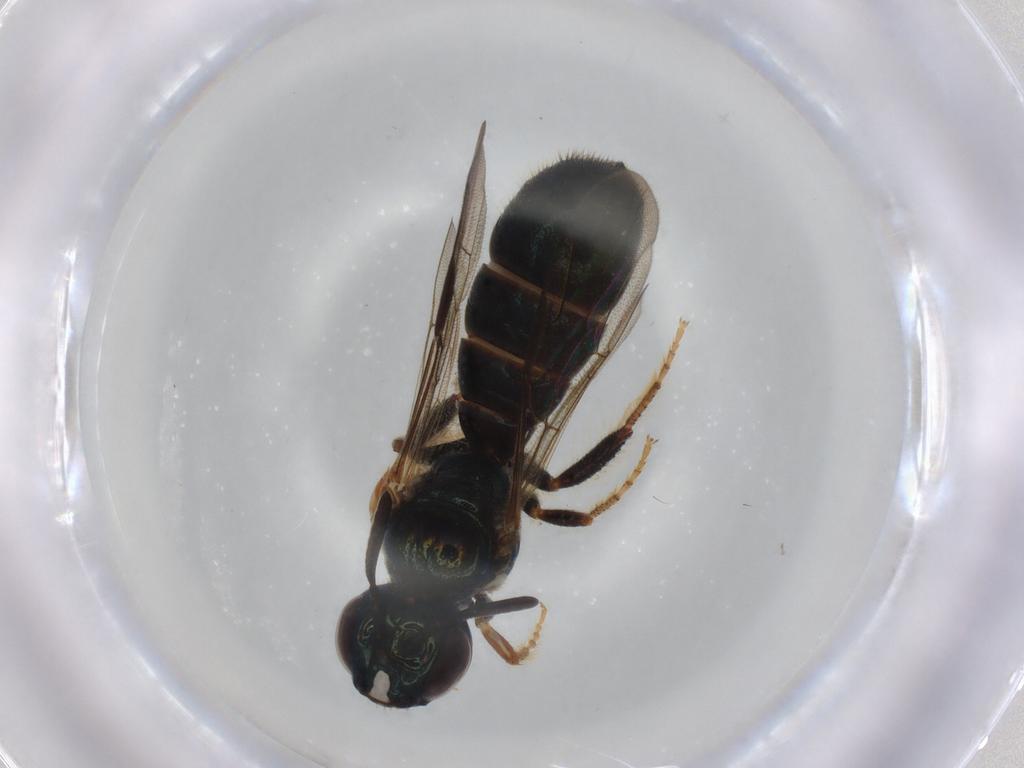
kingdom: Animalia
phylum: Arthropoda
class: Insecta
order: Hymenoptera
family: Apidae
